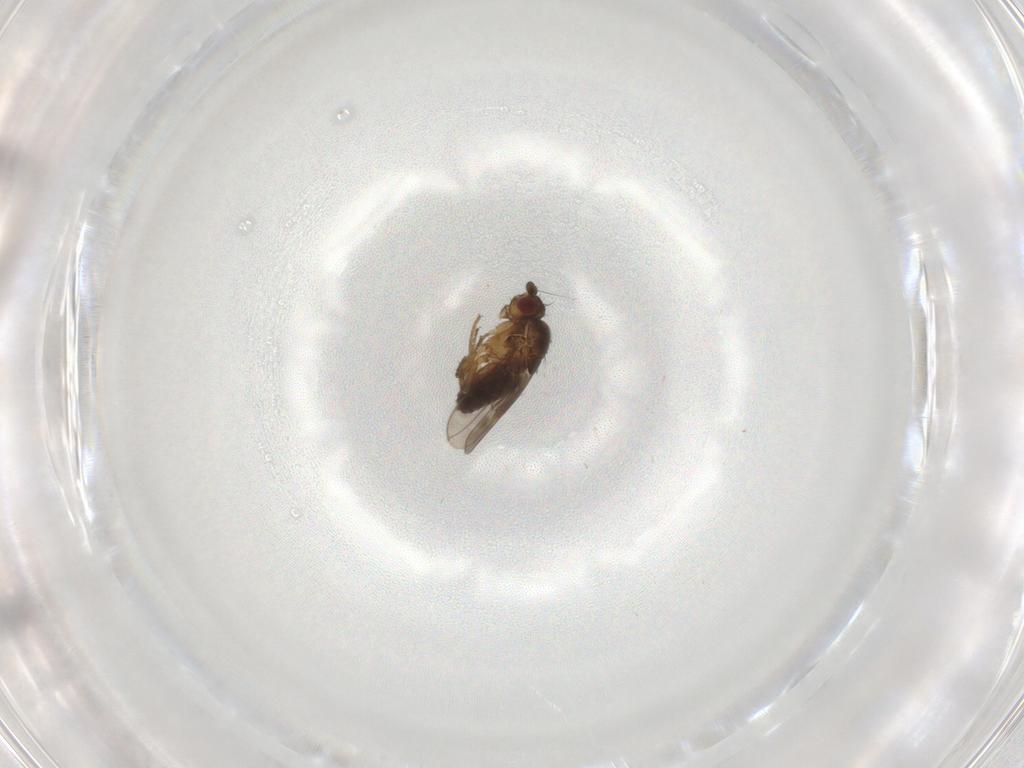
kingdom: Animalia
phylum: Arthropoda
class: Insecta
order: Diptera
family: Sphaeroceridae
